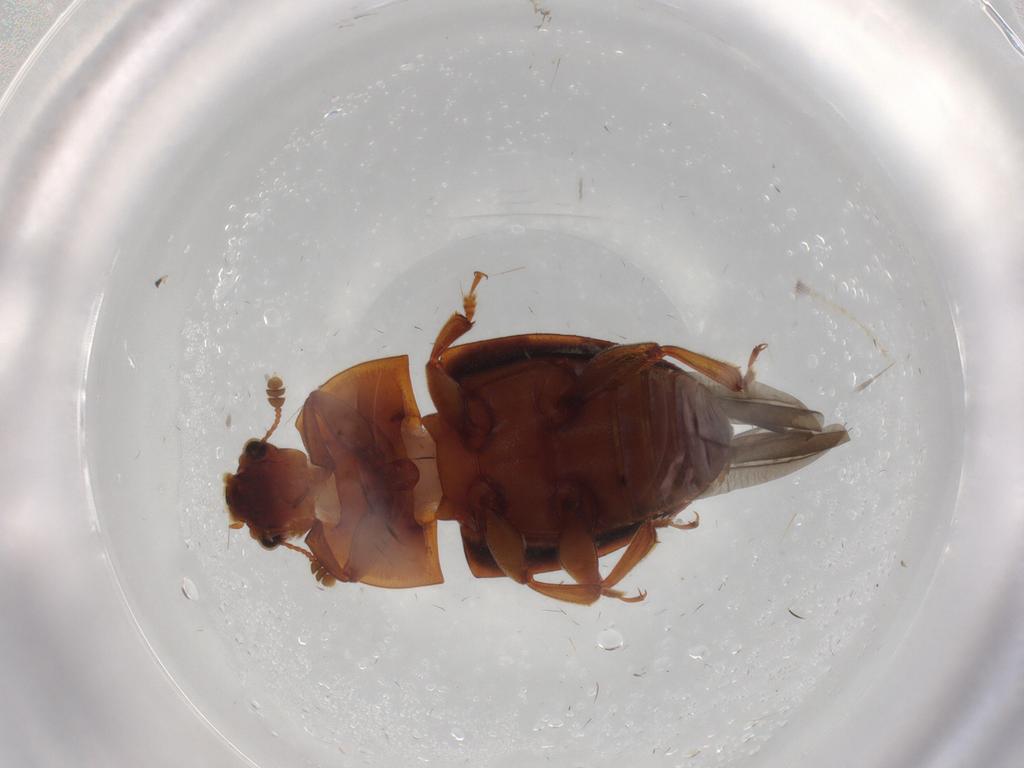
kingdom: Animalia
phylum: Arthropoda
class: Insecta
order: Coleoptera
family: Nitidulidae
